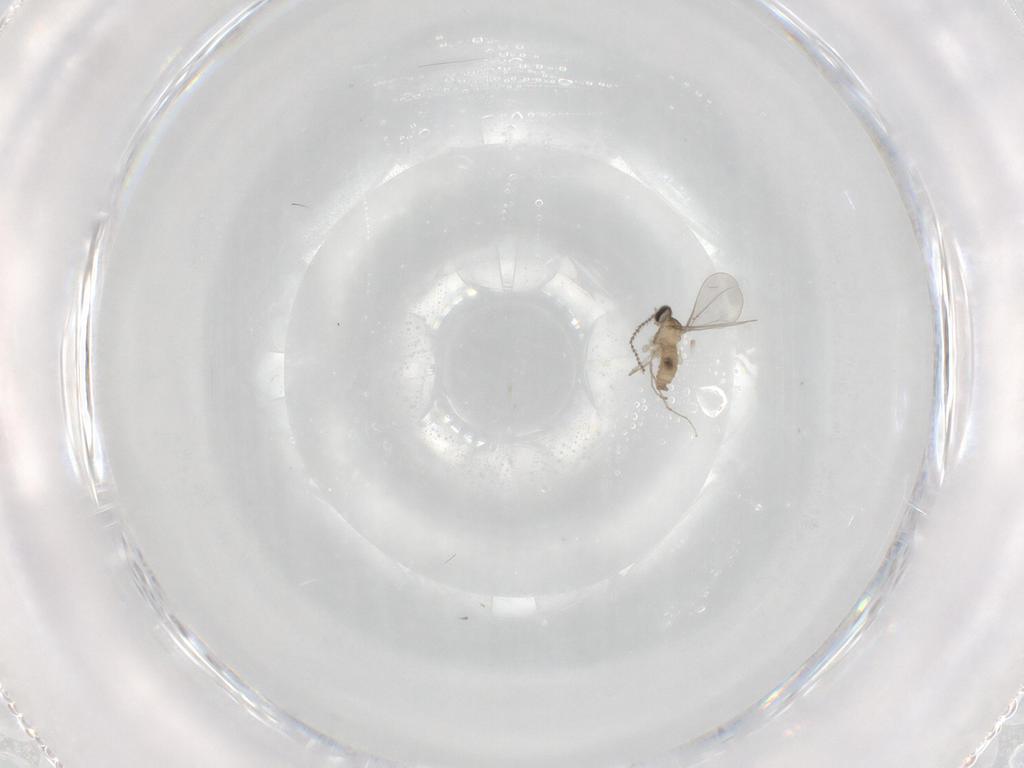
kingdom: Animalia
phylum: Arthropoda
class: Insecta
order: Diptera
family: Cecidomyiidae
